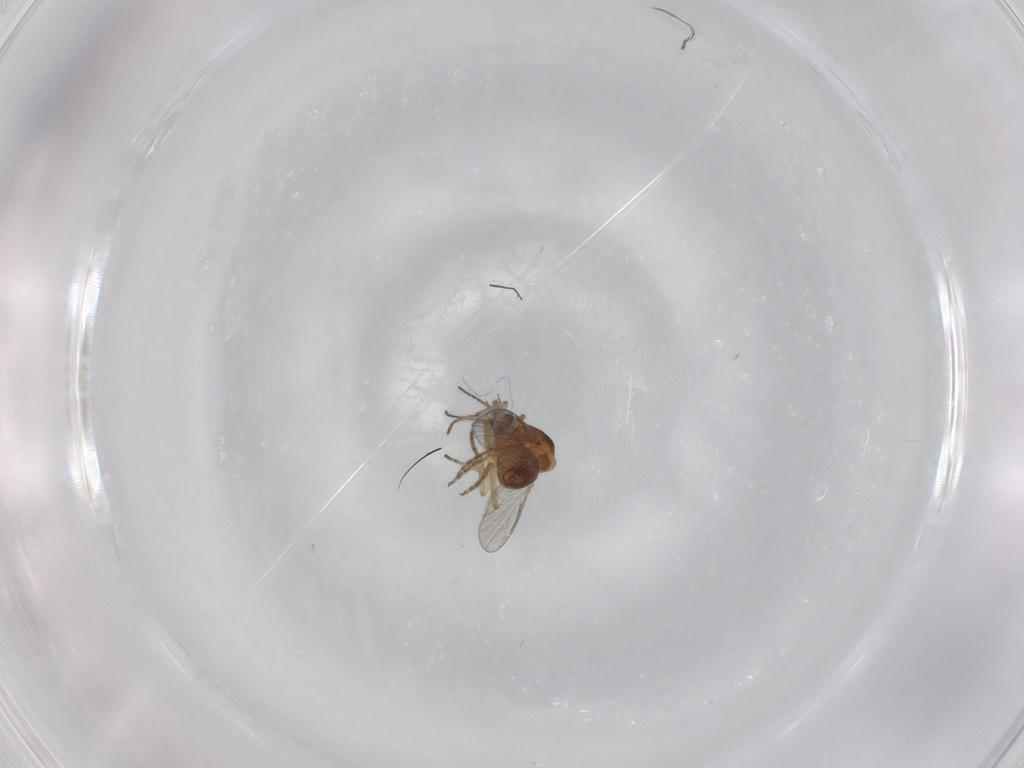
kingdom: Animalia
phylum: Arthropoda
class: Insecta
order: Diptera
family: Ceratopogonidae
